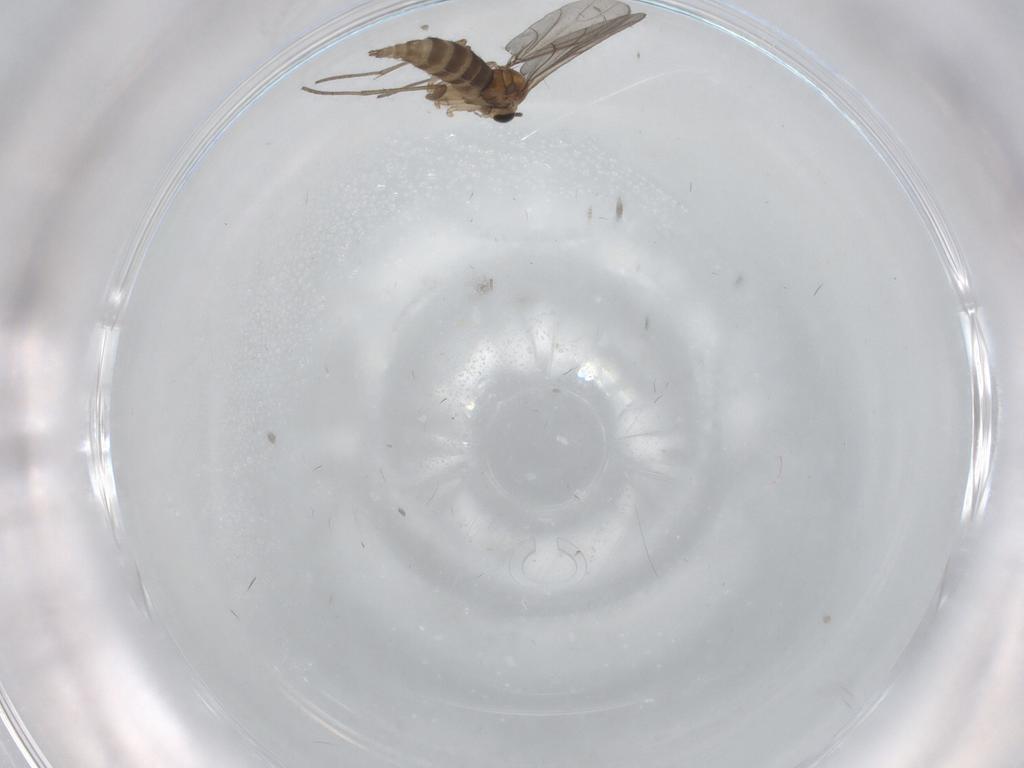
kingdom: Animalia
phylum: Arthropoda
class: Insecta
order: Diptera
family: Sciaridae
